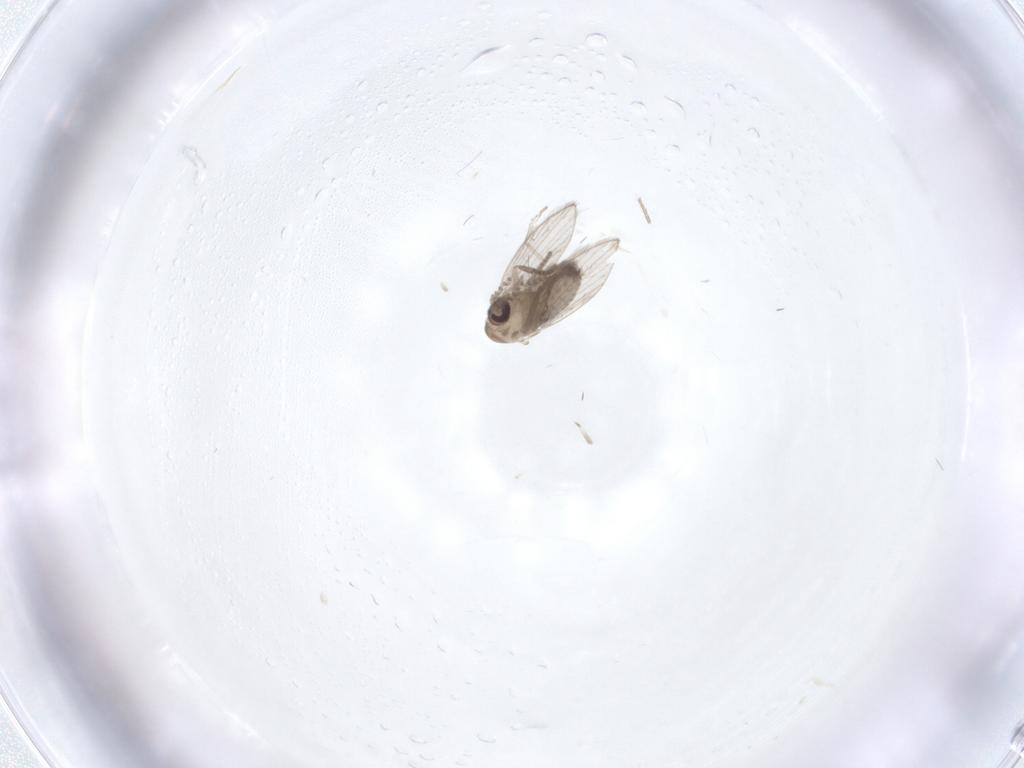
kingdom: Animalia
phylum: Arthropoda
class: Insecta
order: Diptera
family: Psychodidae
